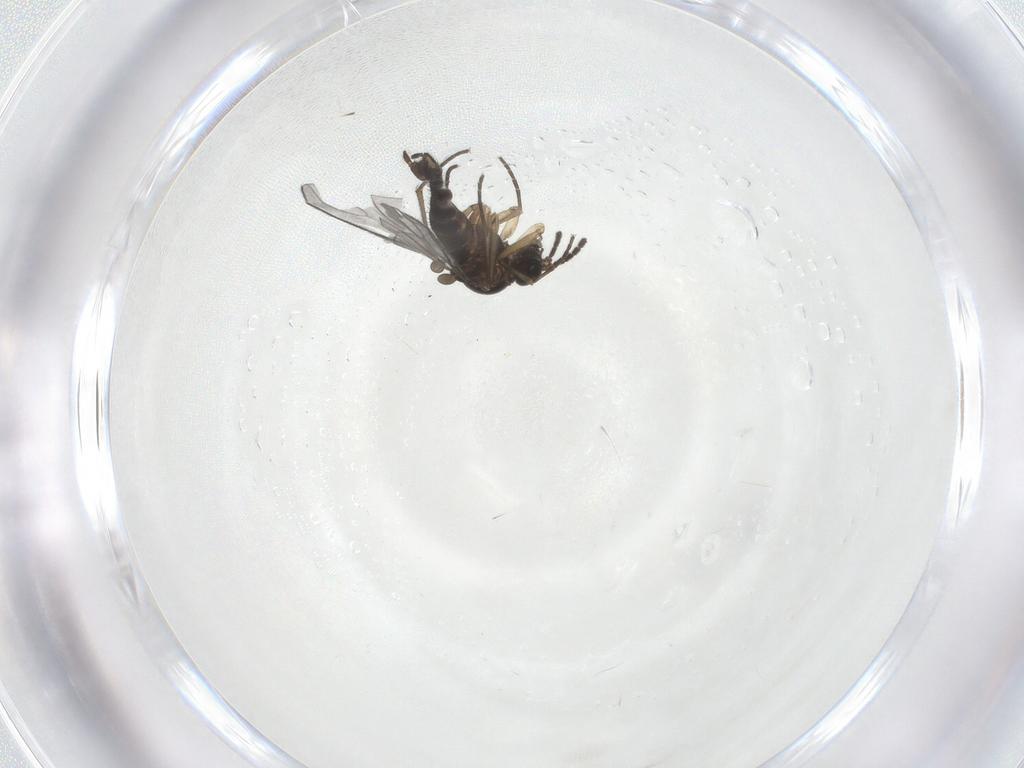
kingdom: Animalia
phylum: Arthropoda
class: Insecta
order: Diptera
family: Sciaridae
